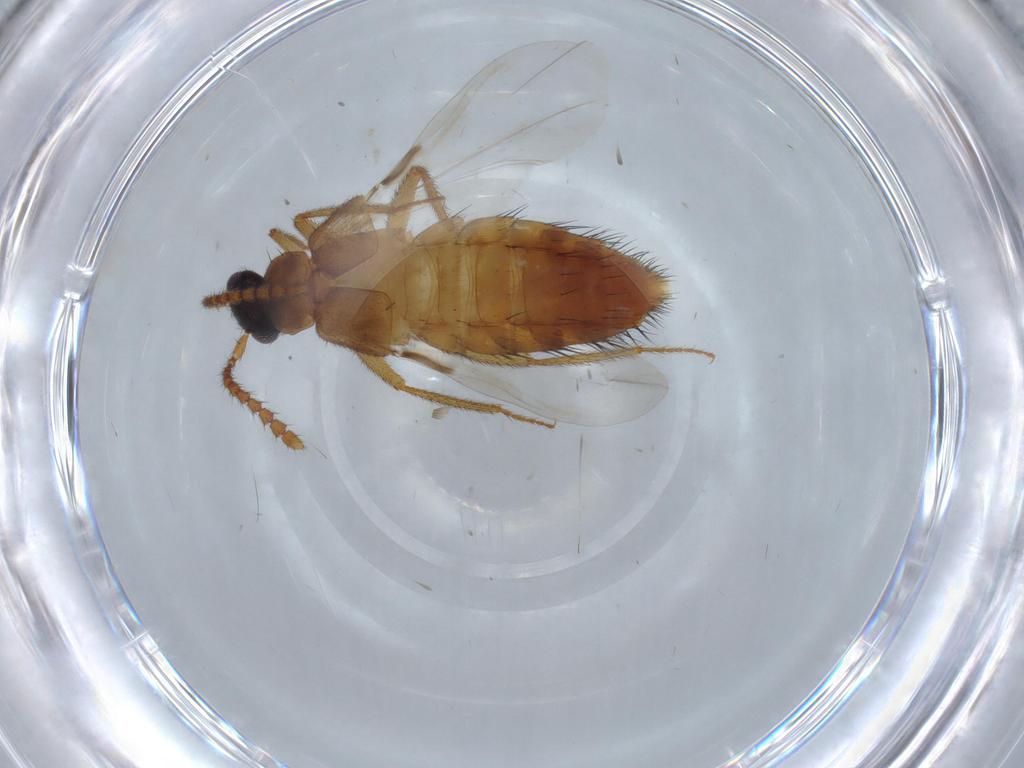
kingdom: Animalia
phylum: Arthropoda
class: Insecta
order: Coleoptera
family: Staphylinidae
